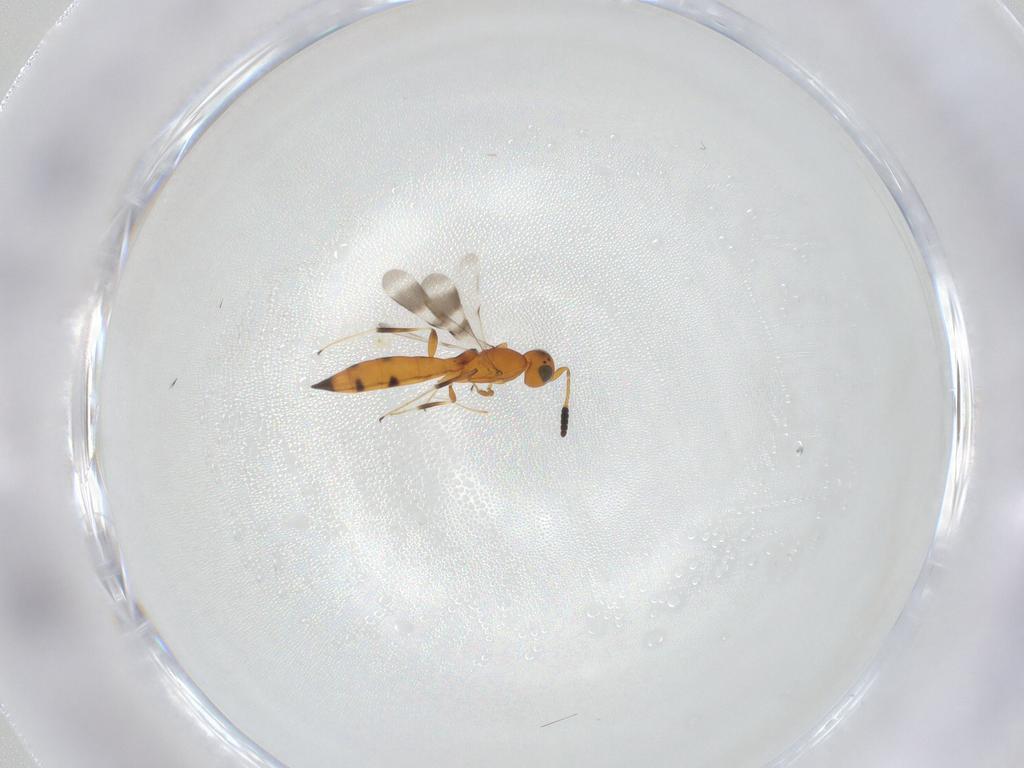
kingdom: Animalia
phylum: Arthropoda
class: Insecta
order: Hymenoptera
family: Scelionidae
